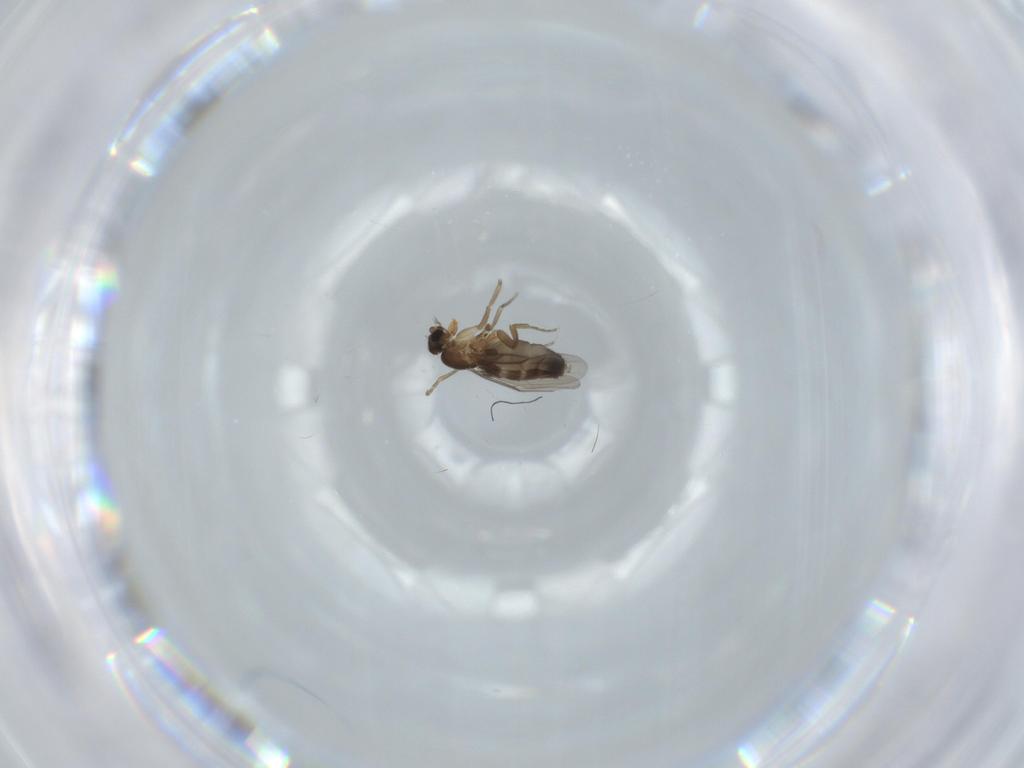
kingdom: Animalia
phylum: Arthropoda
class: Insecta
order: Diptera
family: Phoridae
